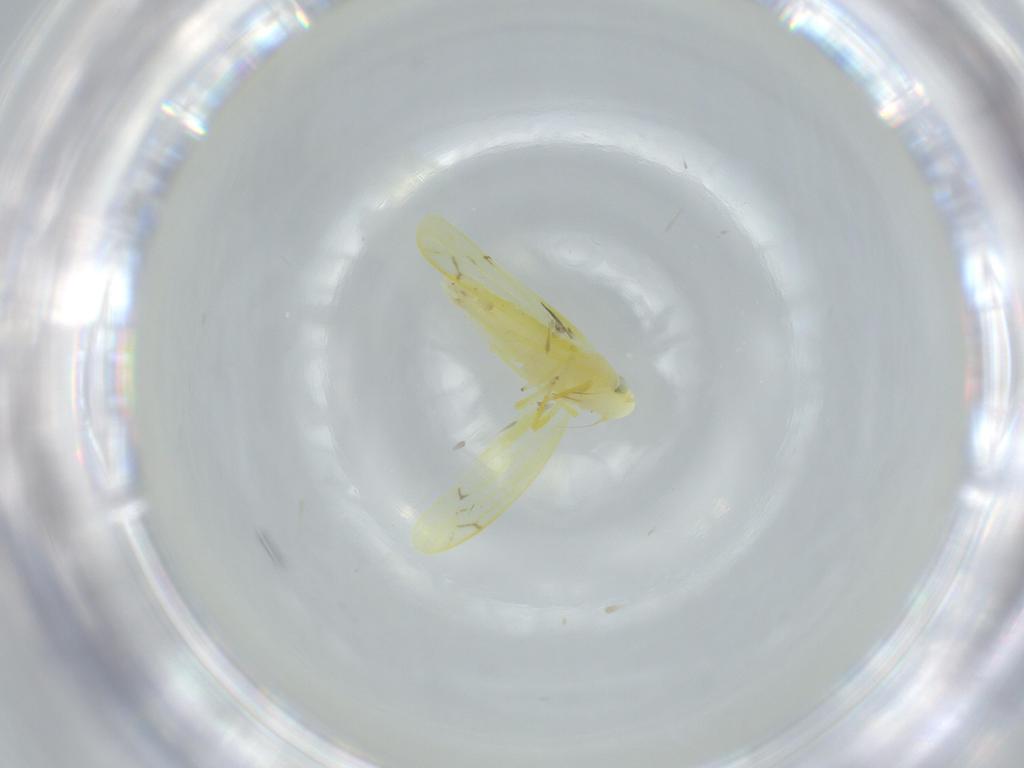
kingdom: Animalia
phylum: Arthropoda
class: Insecta
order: Hemiptera
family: Cicadellidae
